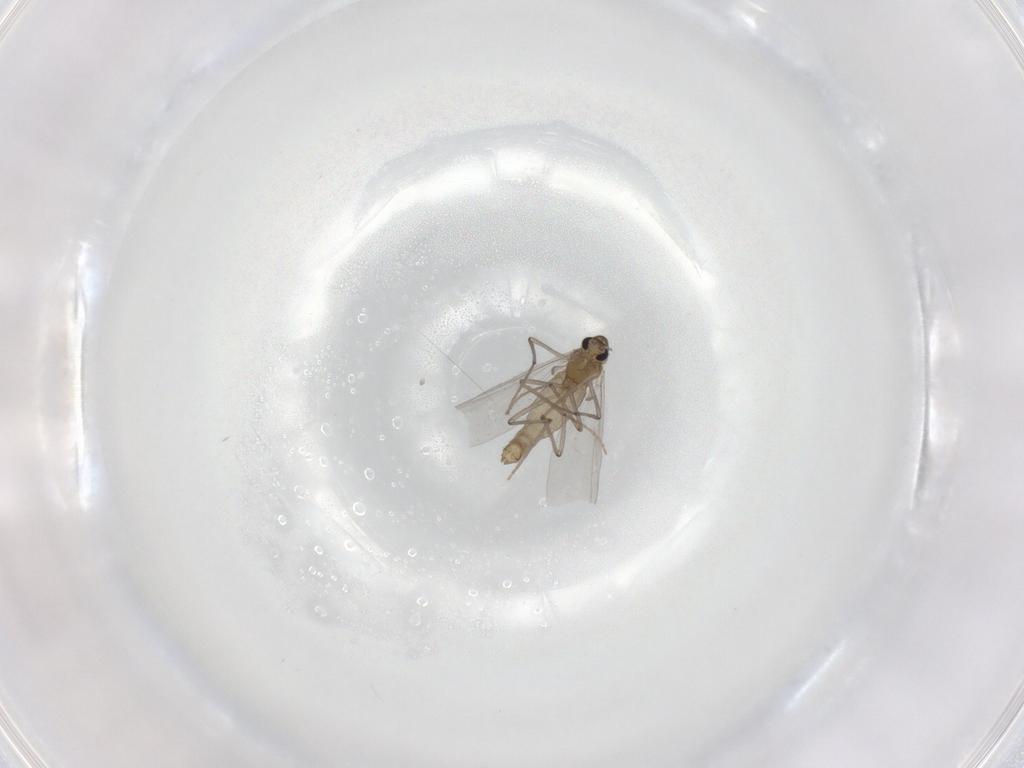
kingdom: Animalia
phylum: Arthropoda
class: Insecta
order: Diptera
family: Chironomidae
